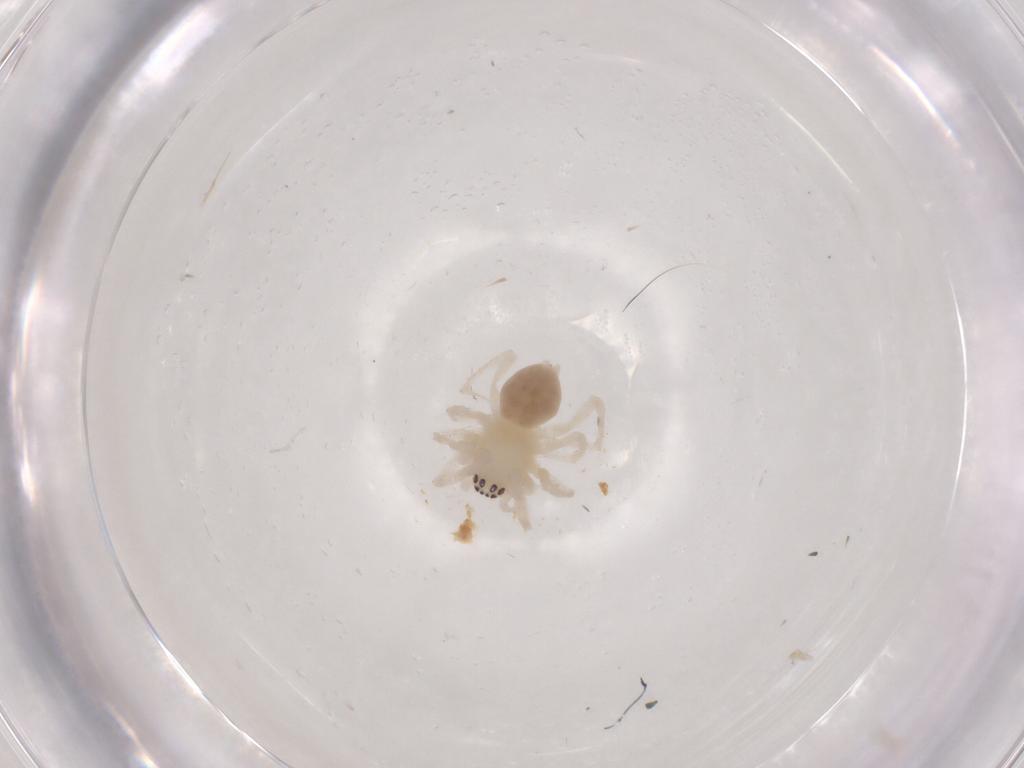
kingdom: Animalia
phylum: Arthropoda
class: Arachnida
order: Araneae
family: Anyphaenidae
